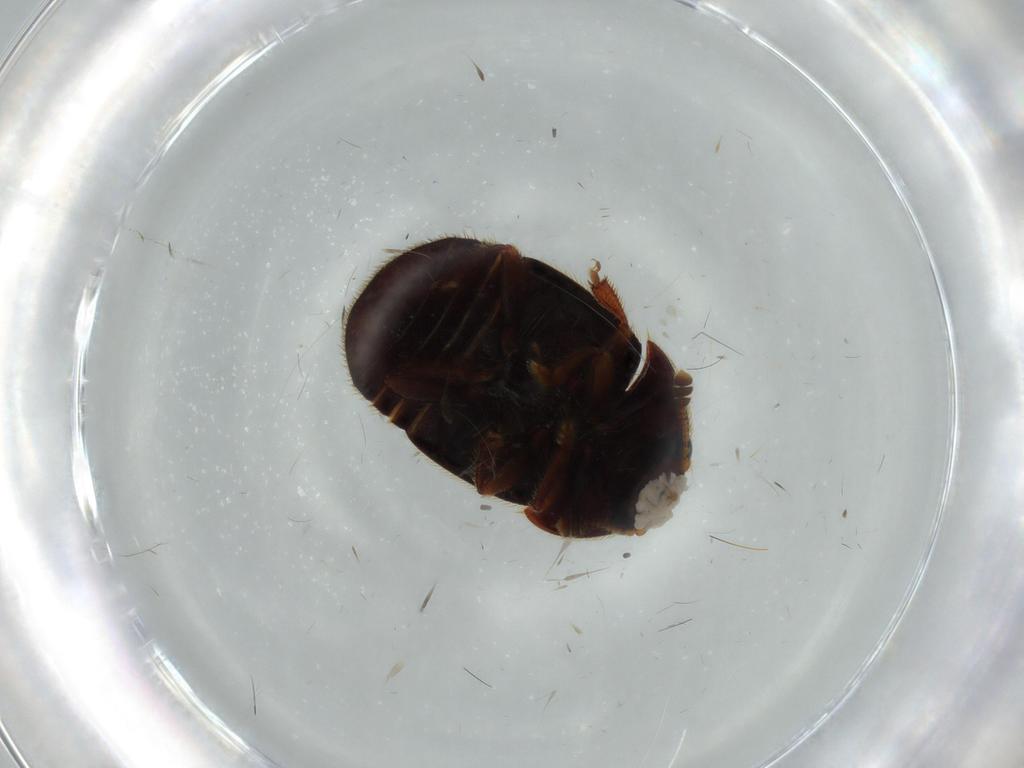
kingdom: Animalia
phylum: Arthropoda
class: Insecta
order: Coleoptera
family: Nitidulidae
